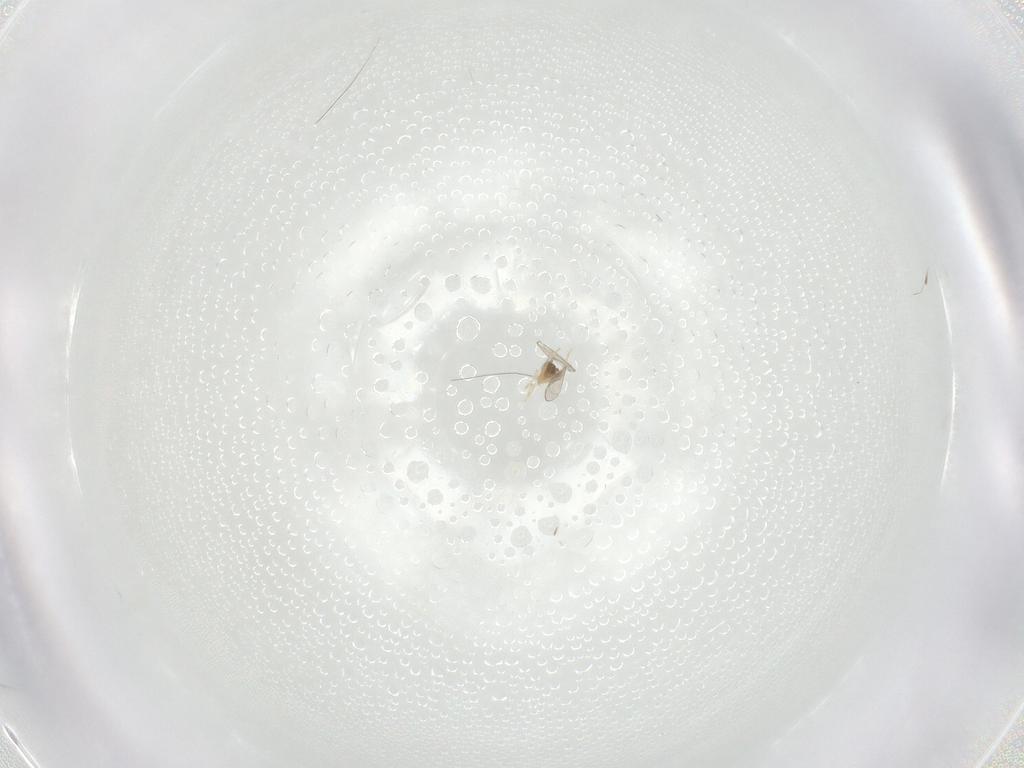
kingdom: Animalia
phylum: Arthropoda
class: Insecta
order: Diptera
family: Cecidomyiidae
